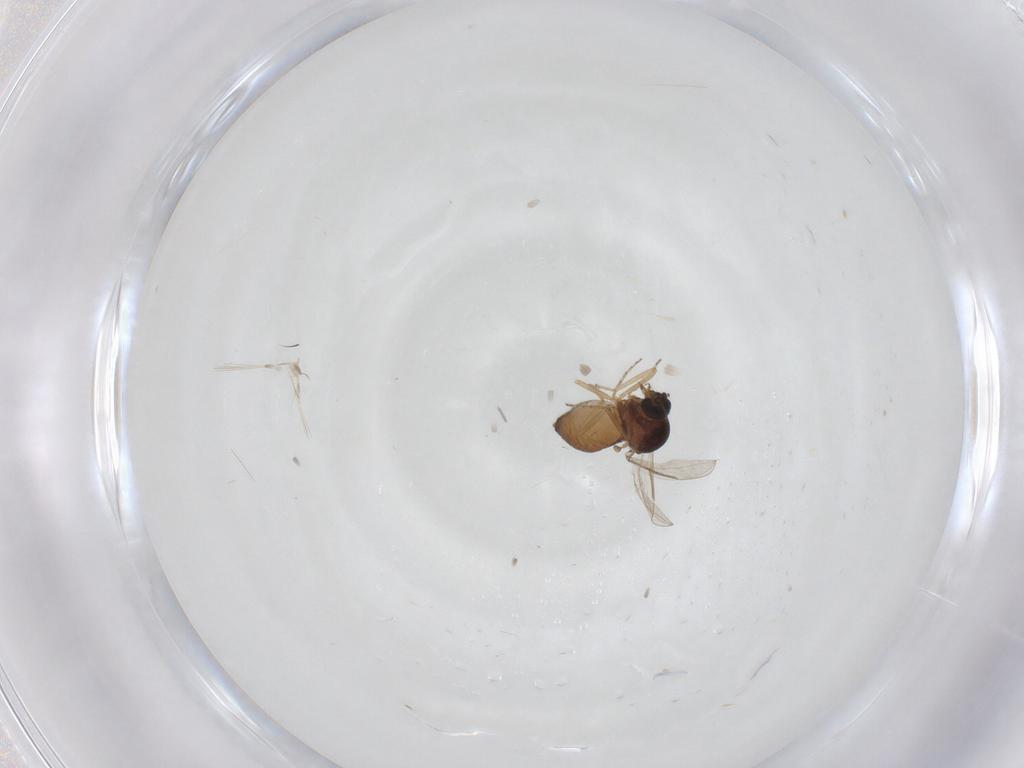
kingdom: Animalia
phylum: Arthropoda
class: Insecta
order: Diptera
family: Ceratopogonidae
